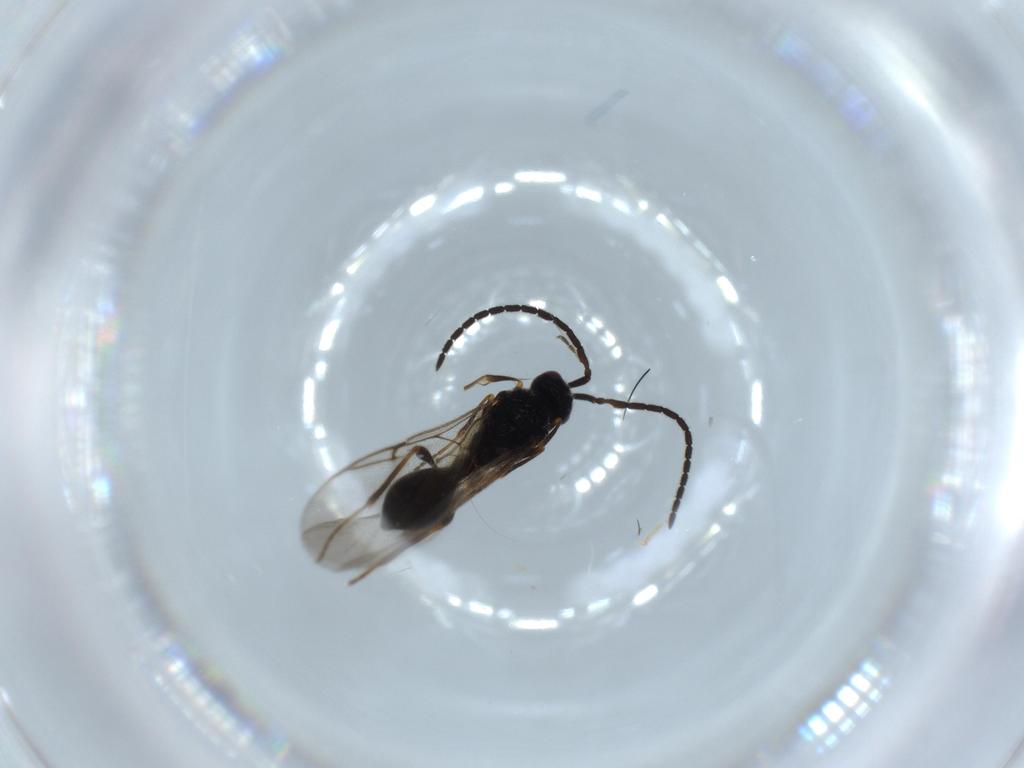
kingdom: Animalia
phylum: Arthropoda
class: Insecta
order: Hymenoptera
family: Diapriidae
